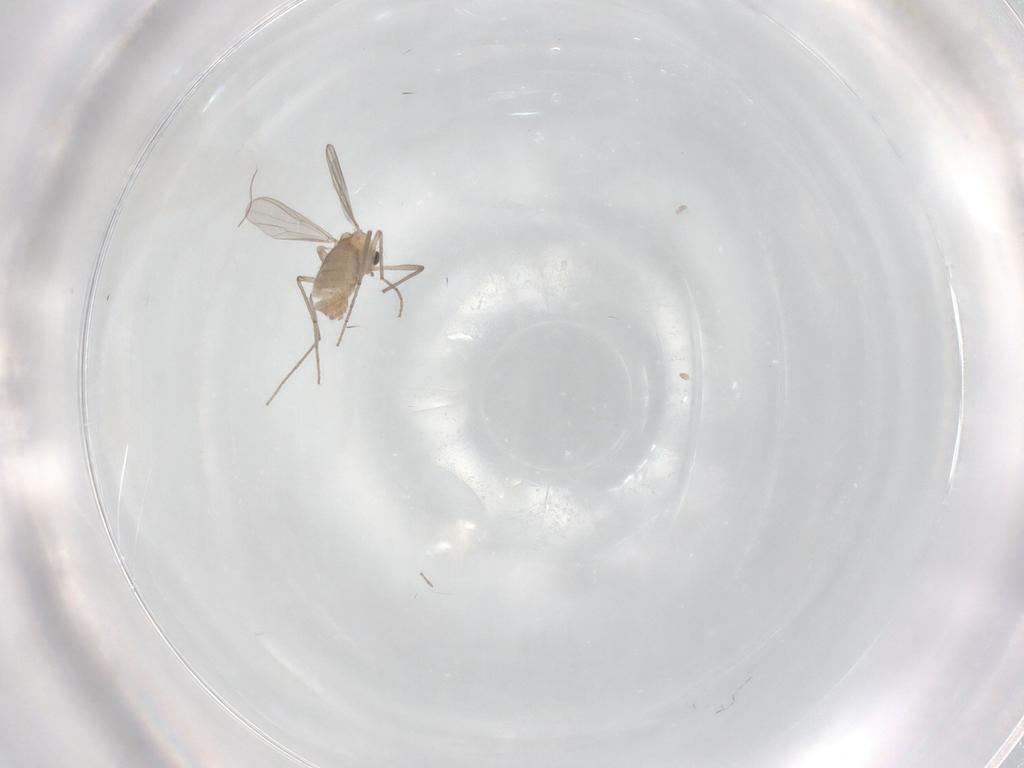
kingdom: Animalia
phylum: Arthropoda
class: Insecta
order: Diptera
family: Chironomidae
